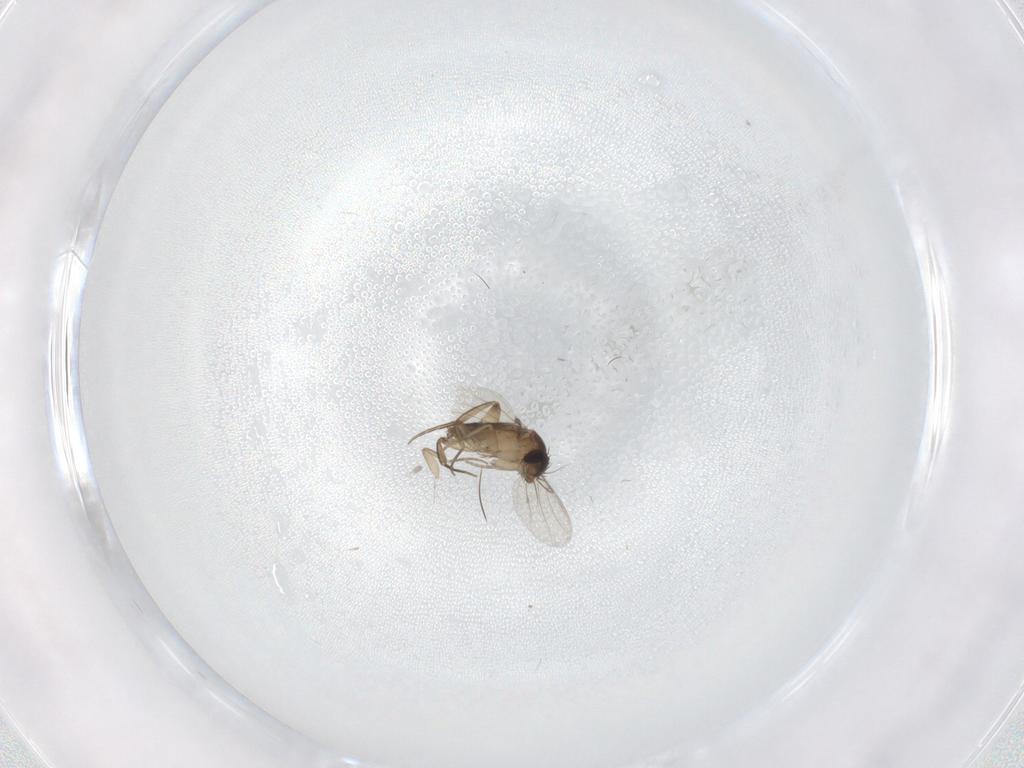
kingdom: Animalia
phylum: Arthropoda
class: Insecta
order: Diptera
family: Phoridae
